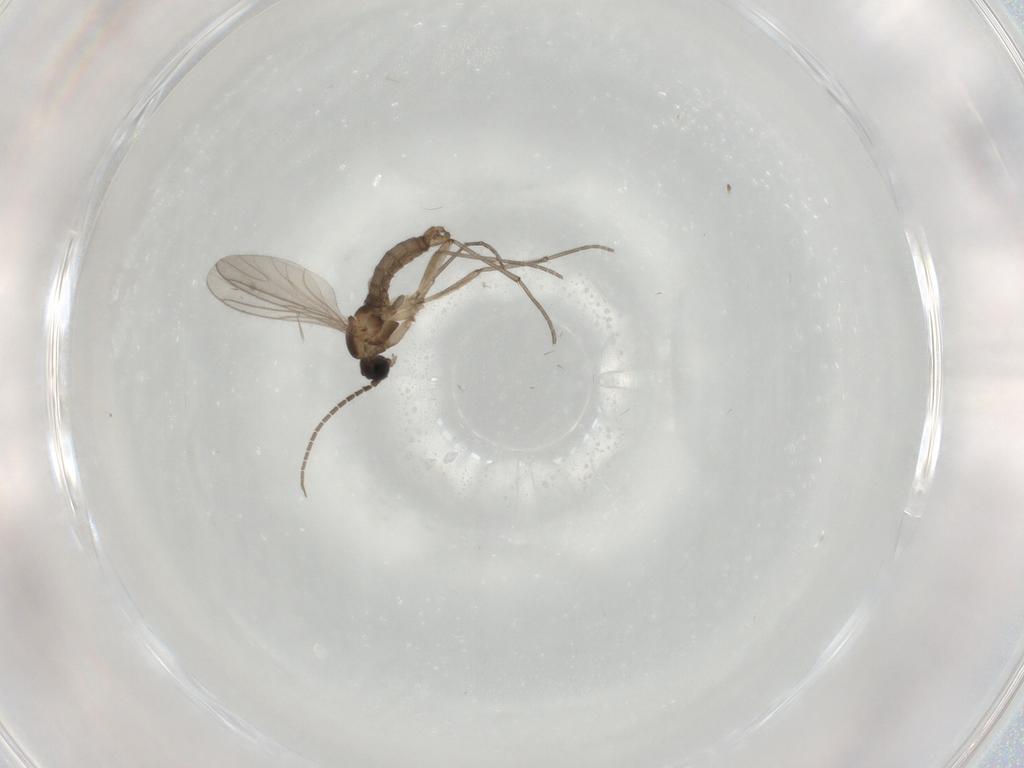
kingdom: Animalia
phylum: Arthropoda
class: Insecta
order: Diptera
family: Sciaridae
